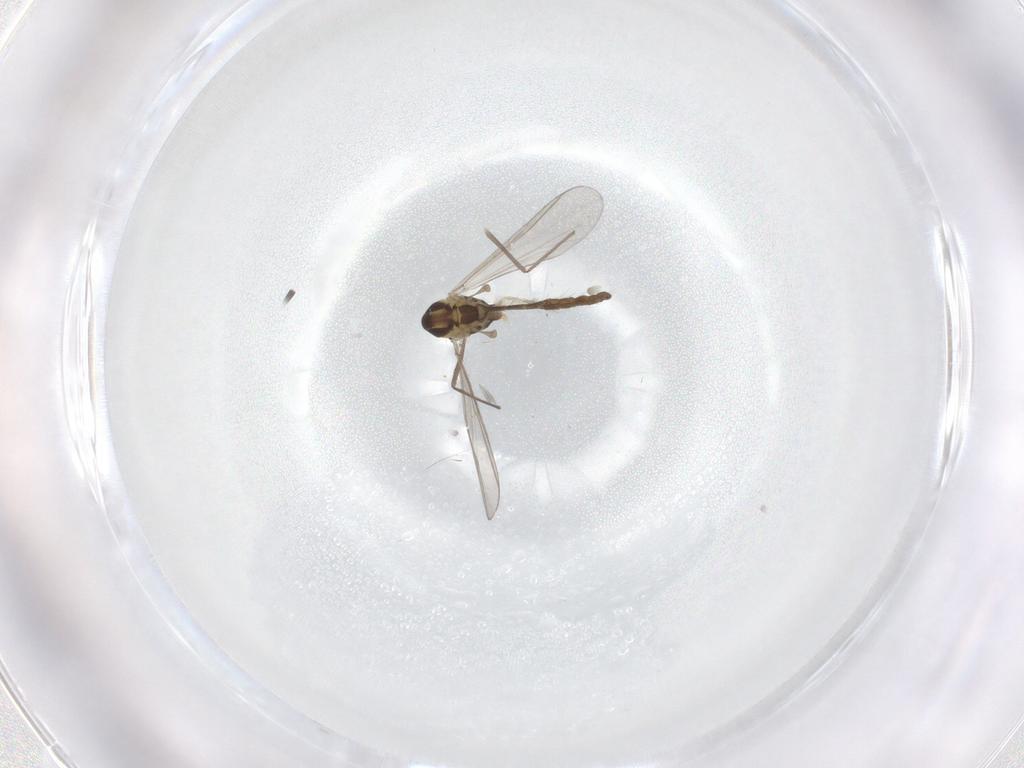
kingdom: Animalia
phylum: Arthropoda
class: Insecta
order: Diptera
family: Chironomidae
